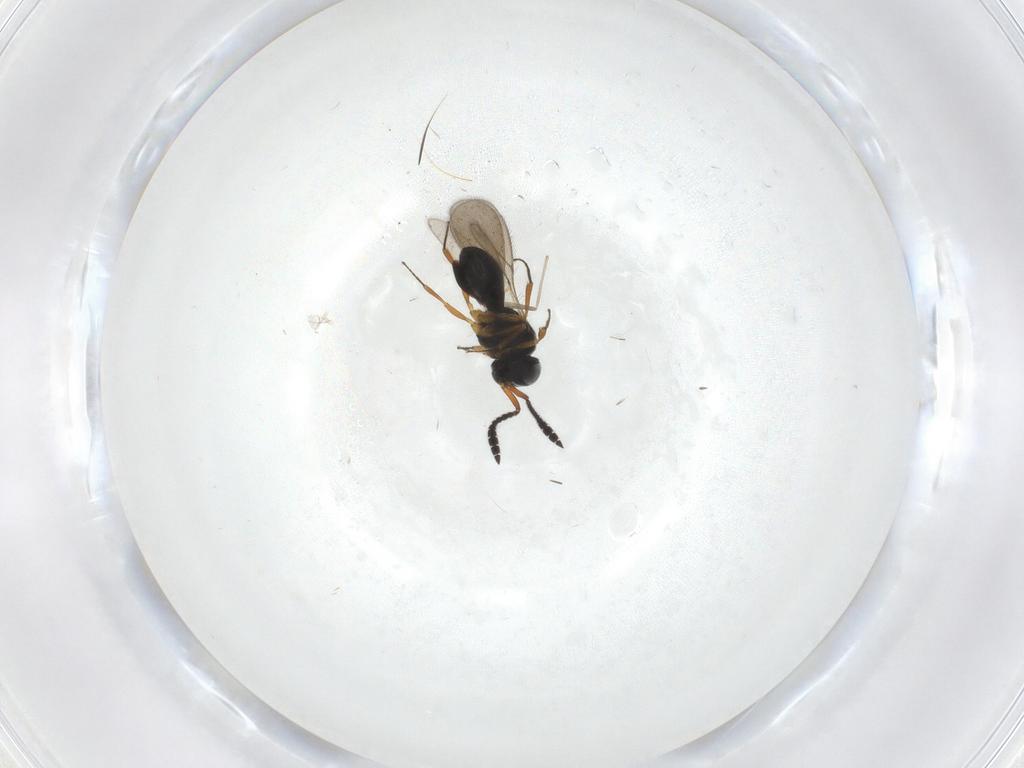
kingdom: Animalia
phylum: Arthropoda
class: Insecta
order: Hymenoptera
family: Scelionidae
